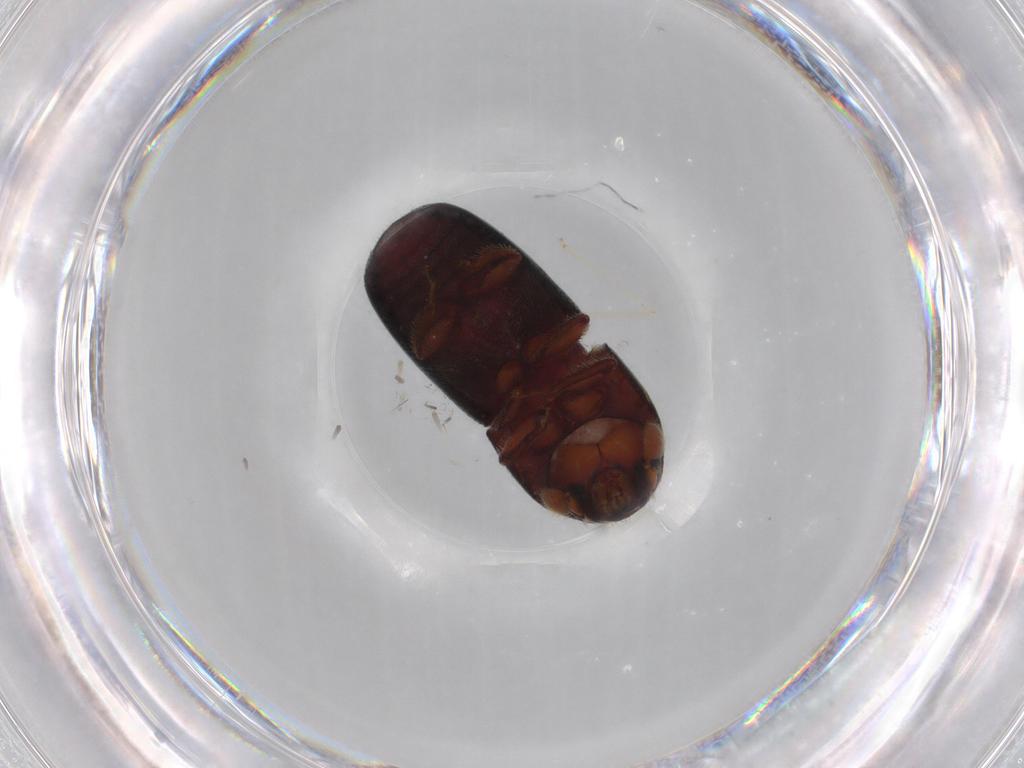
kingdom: Animalia
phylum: Arthropoda
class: Insecta
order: Coleoptera
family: Curculionidae
